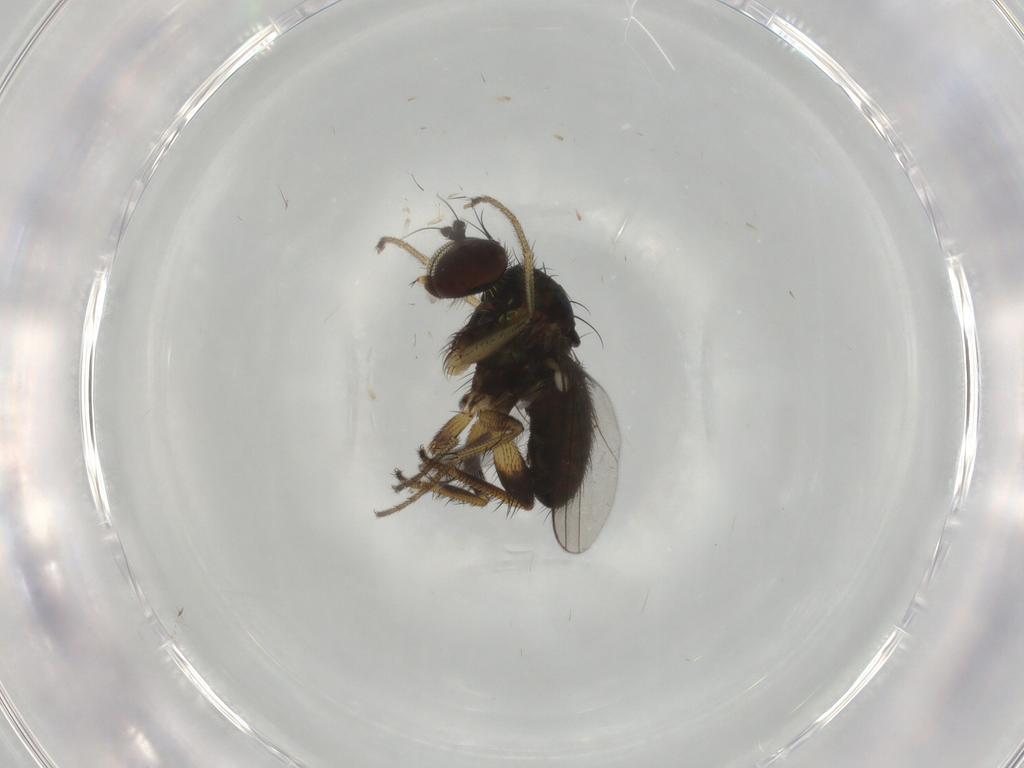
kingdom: Animalia
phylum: Arthropoda
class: Insecta
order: Diptera
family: Dolichopodidae
